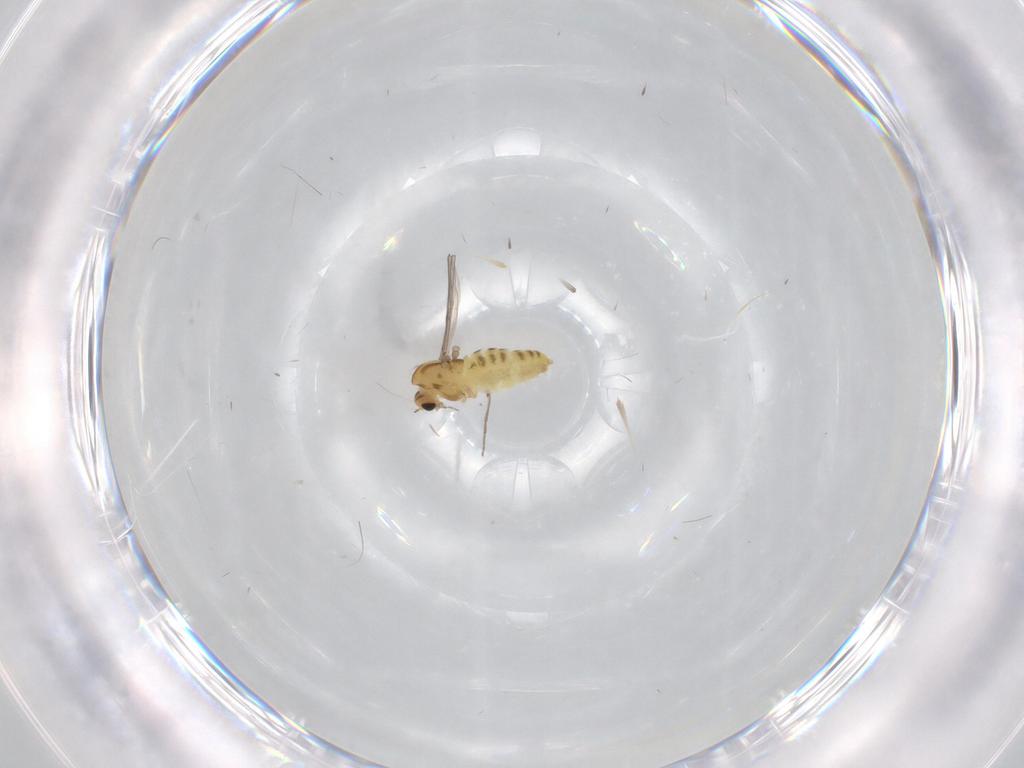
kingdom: Animalia
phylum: Arthropoda
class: Insecta
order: Diptera
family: Chironomidae
